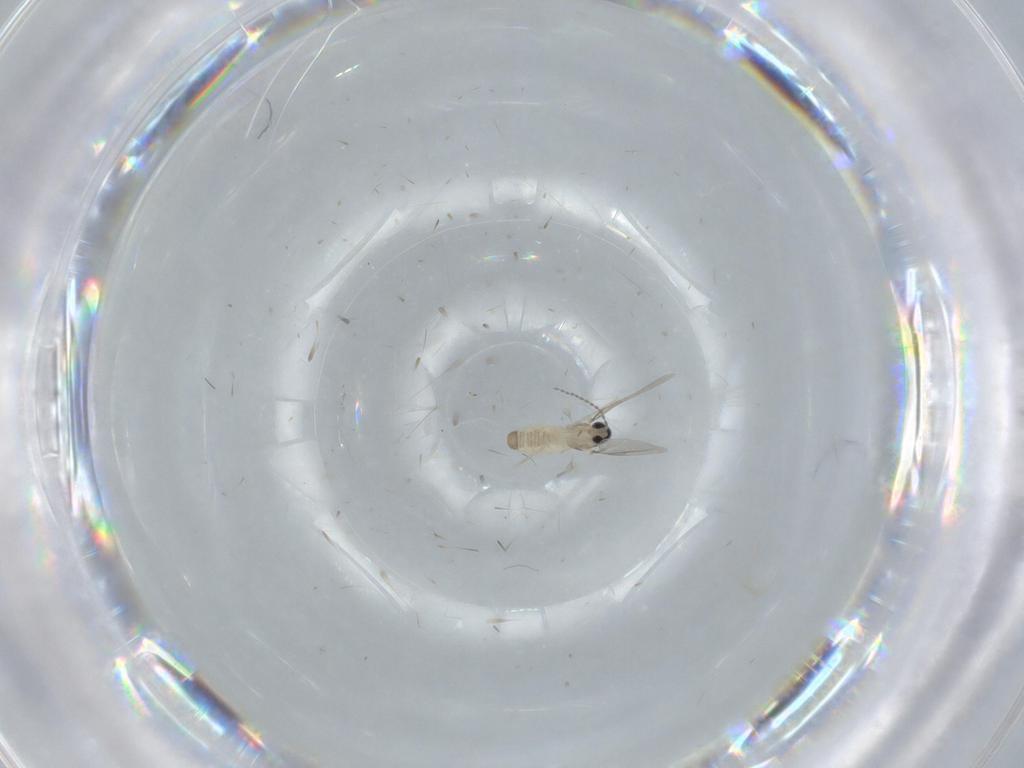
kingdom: Animalia
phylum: Arthropoda
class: Insecta
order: Diptera
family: Cecidomyiidae
